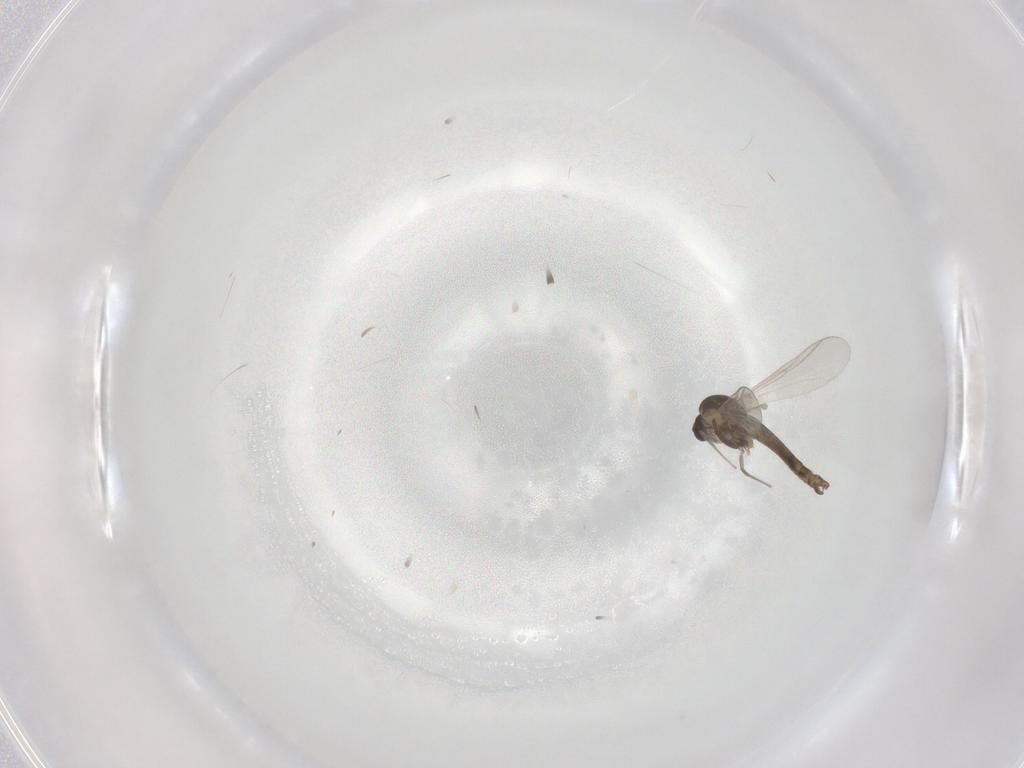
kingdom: Animalia
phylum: Arthropoda
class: Insecta
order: Diptera
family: Chironomidae
